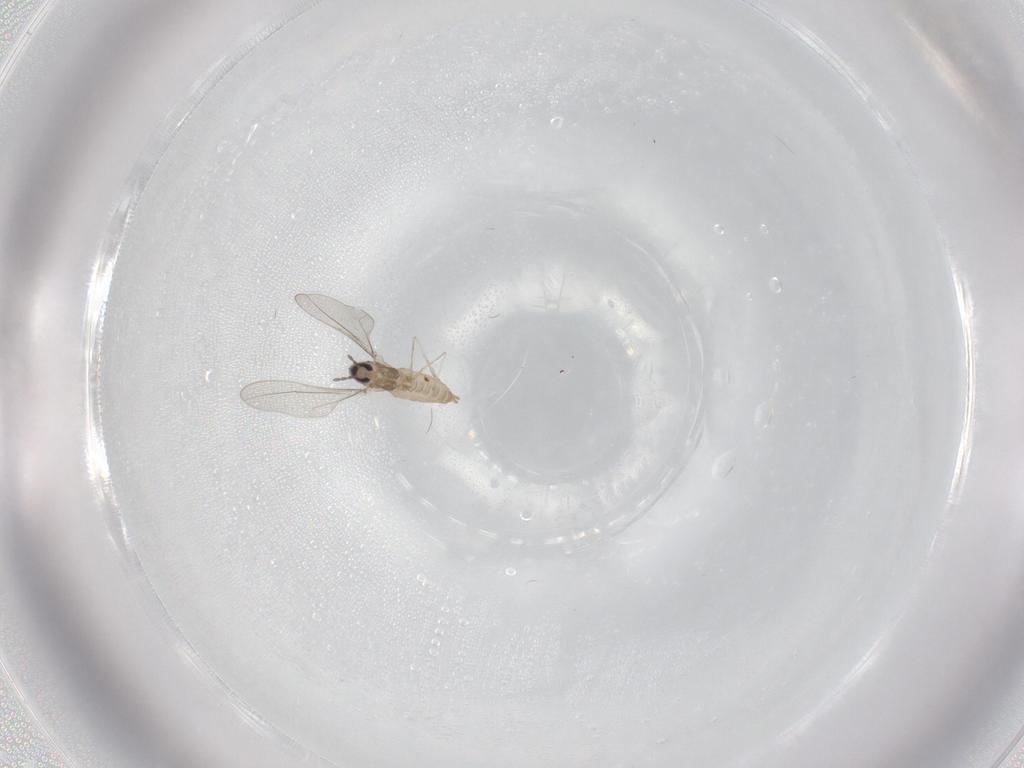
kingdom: Animalia
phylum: Arthropoda
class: Insecta
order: Diptera
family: Cecidomyiidae
